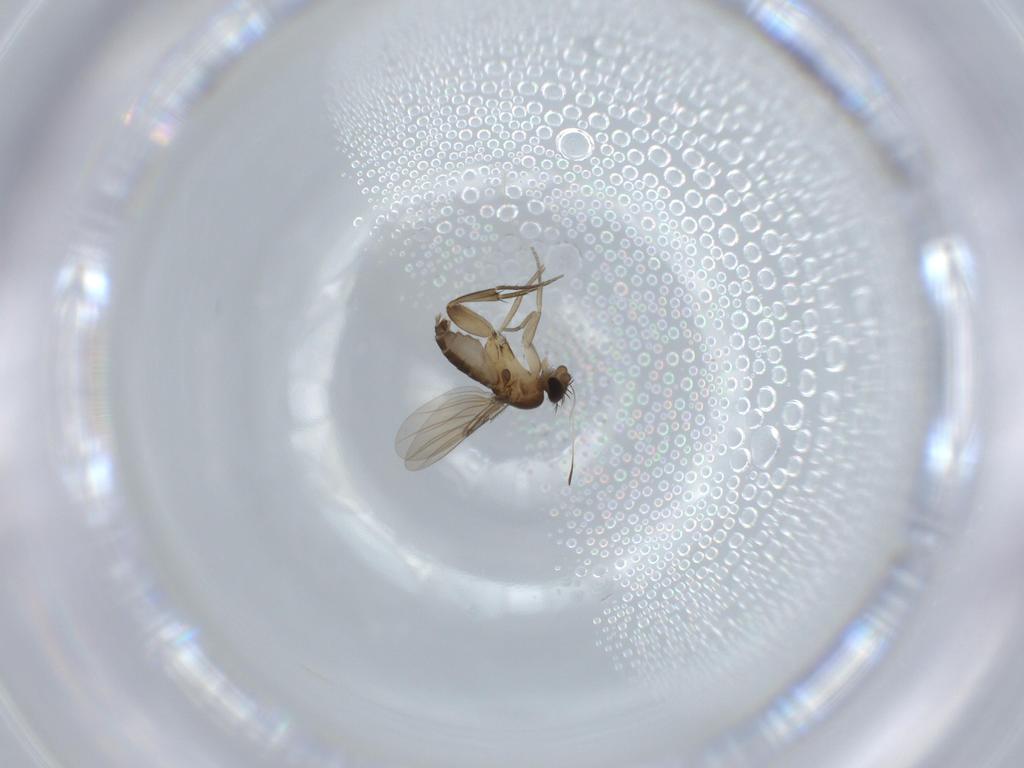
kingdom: Animalia
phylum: Arthropoda
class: Insecta
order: Diptera
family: Phoridae
